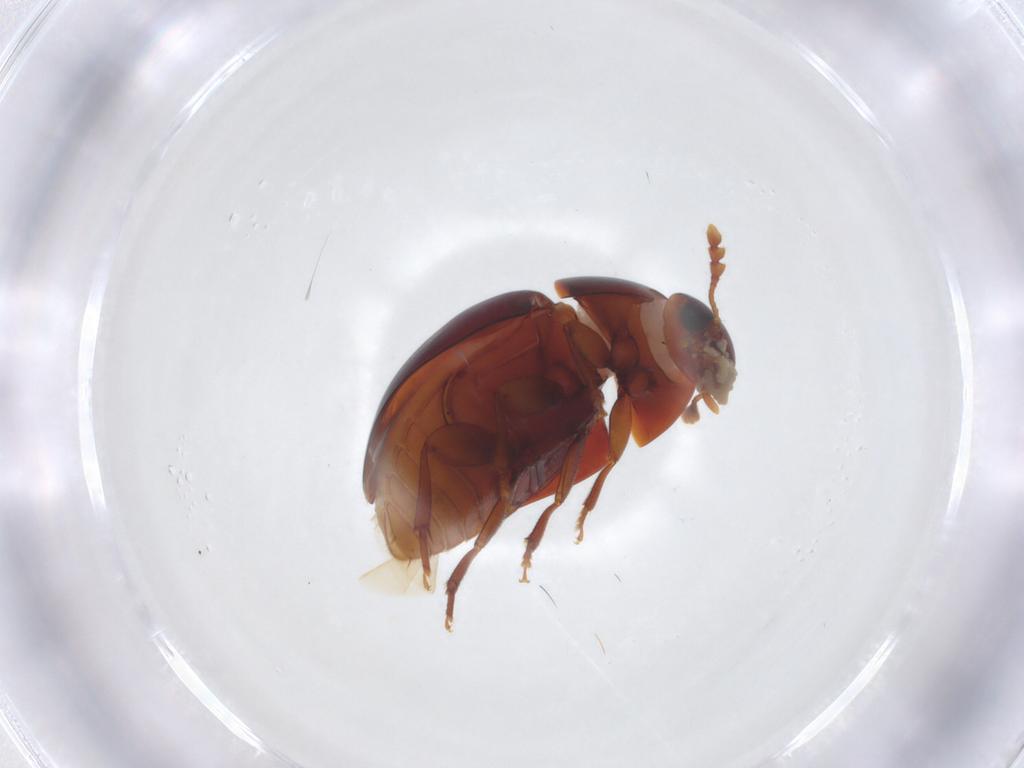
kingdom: Animalia
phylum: Arthropoda
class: Insecta
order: Coleoptera
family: Phalacridae
